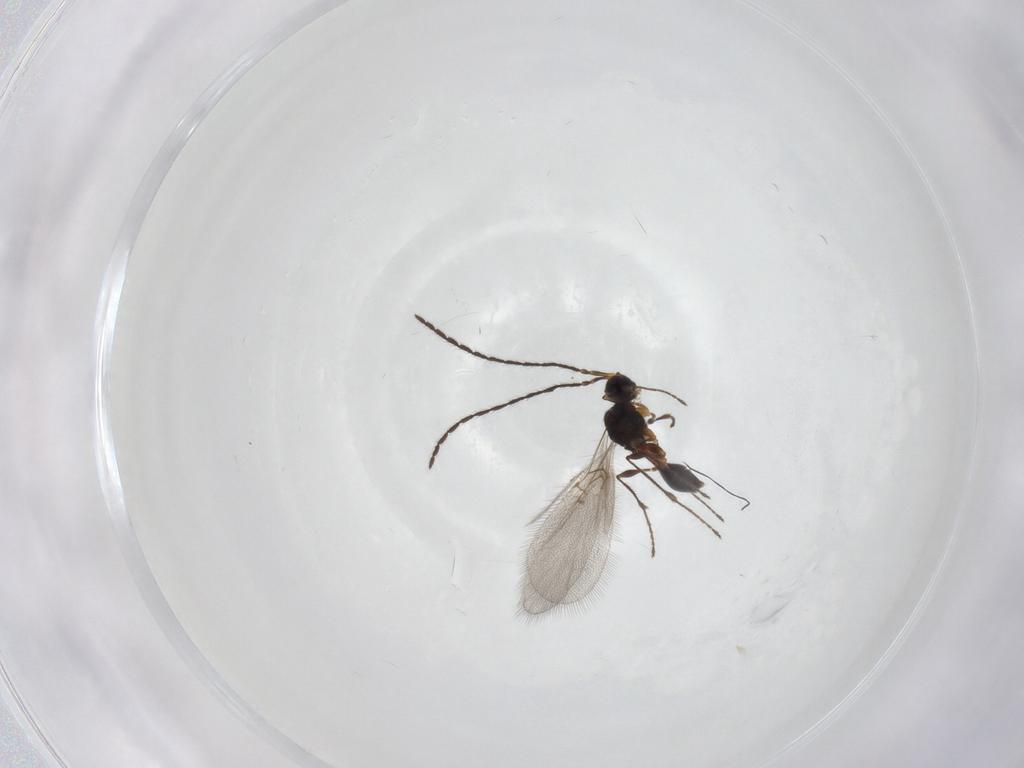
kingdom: Animalia
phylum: Arthropoda
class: Insecta
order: Hymenoptera
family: Diapriidae
